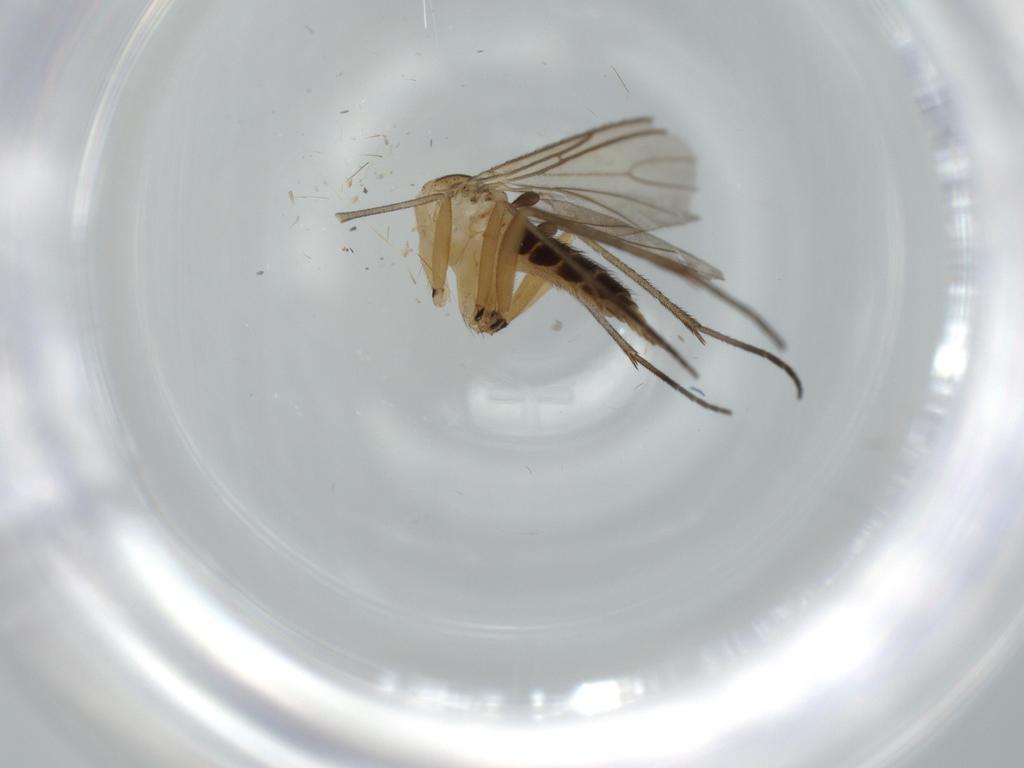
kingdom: Animalia
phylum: Arthropoda
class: Insecta
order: Diptera
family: Sciaridae
